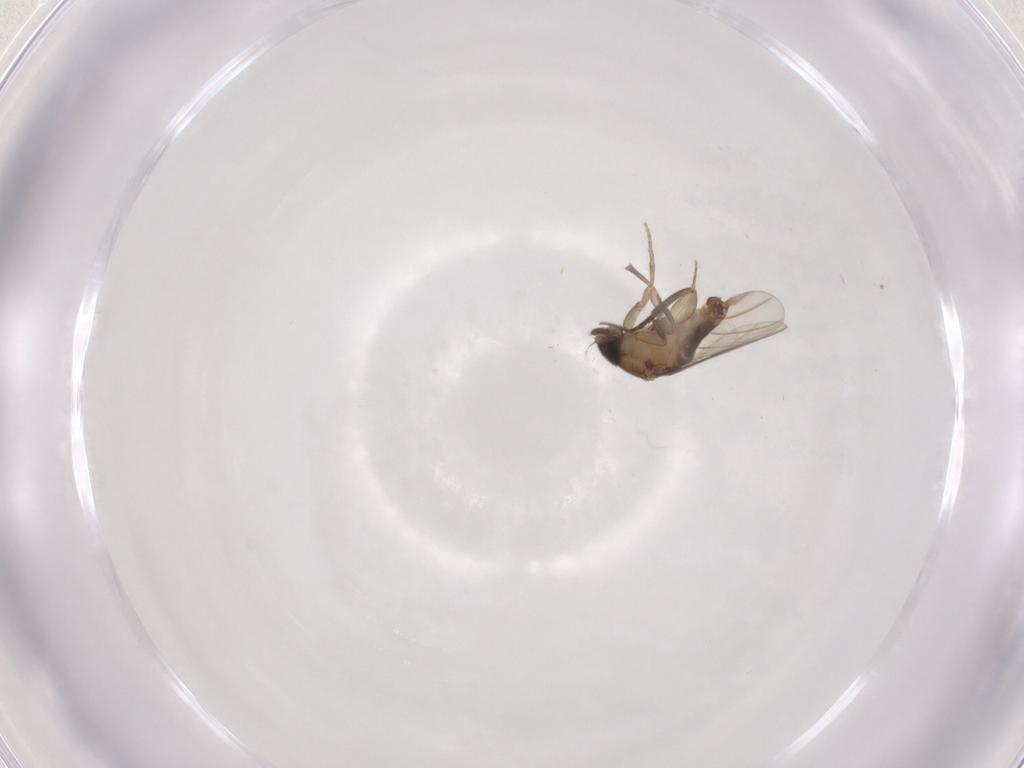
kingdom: Animalia
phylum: Arthropoda
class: Insecta
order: Diptera
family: Phoridae
